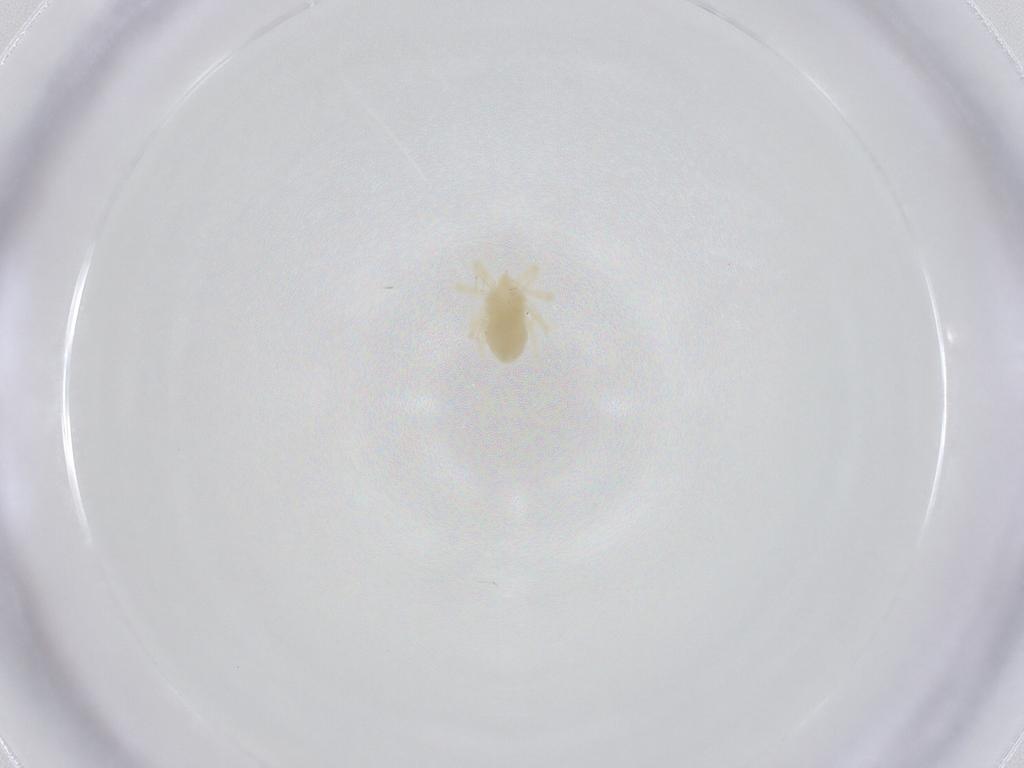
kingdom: Animalia
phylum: Arthropoda
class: Arachnida
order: Trombidiformes
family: Anystidae
